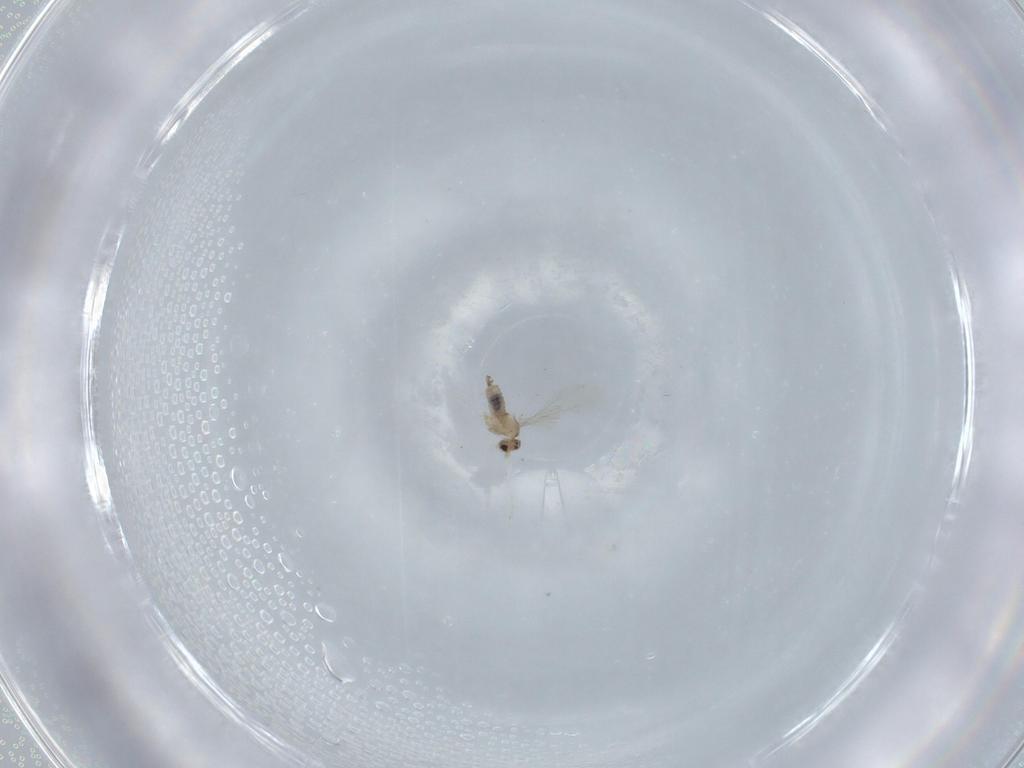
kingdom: Animalia
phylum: Arthropoda
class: Insecta
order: Diptera
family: Cecidomyiidae
